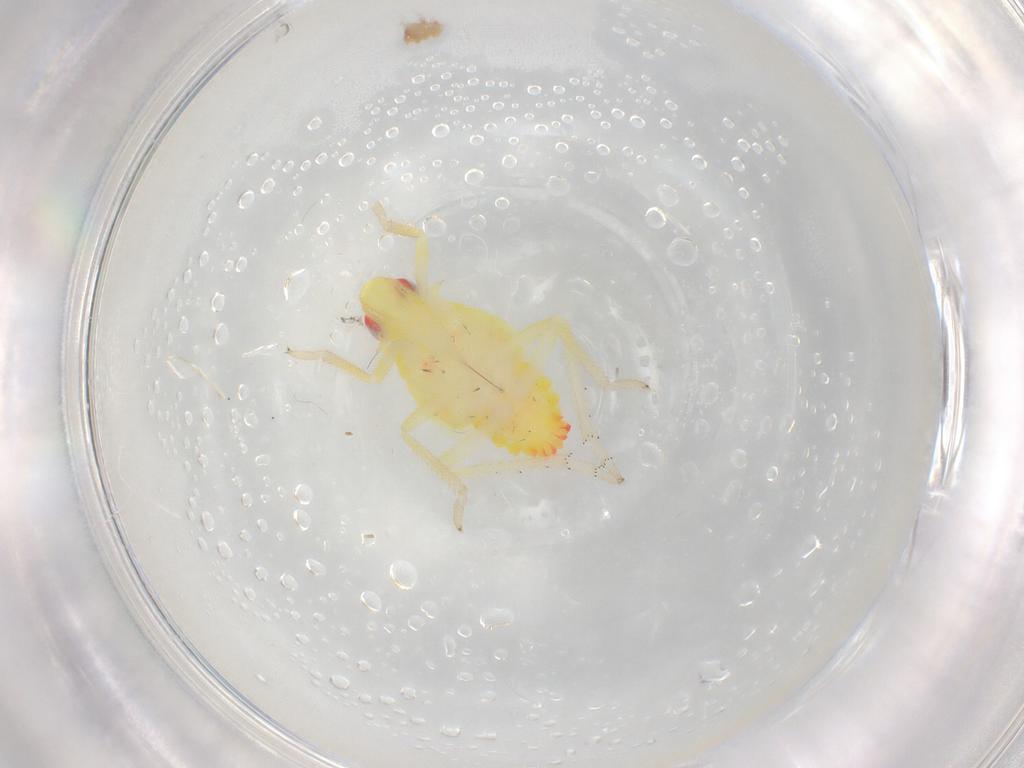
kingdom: Animalia
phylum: Arthropoda
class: Insecta
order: Hemiptera
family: Tropiduchidae
